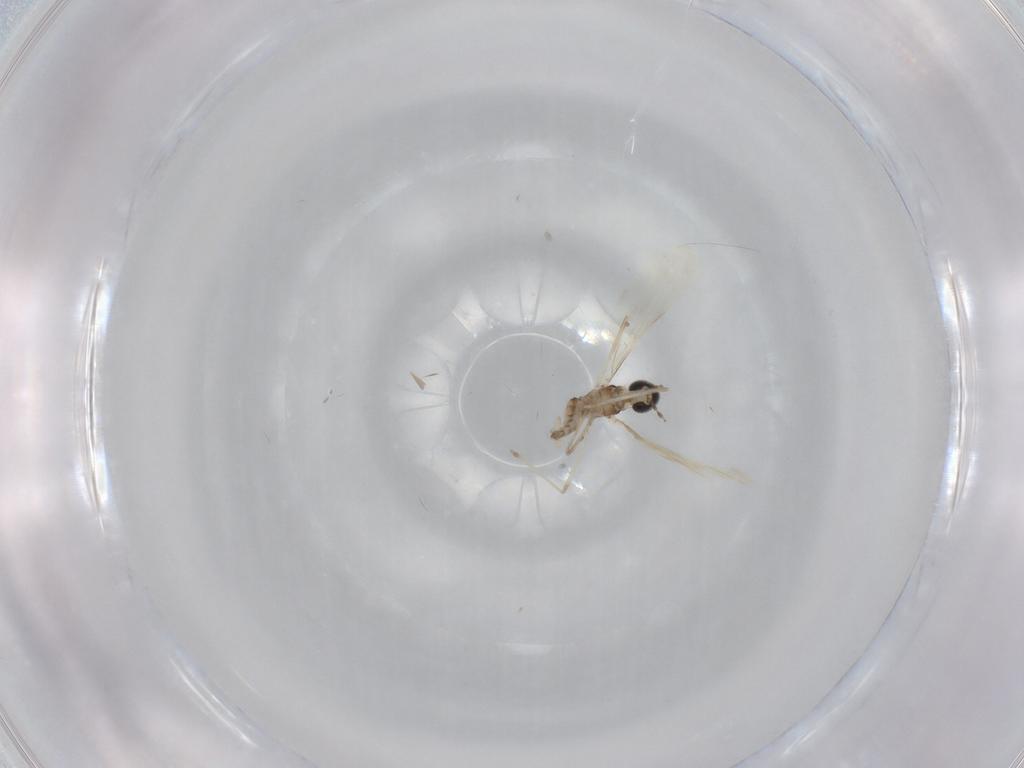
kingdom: Animalia
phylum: Arthropoda
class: Insecta
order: Diptera
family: Cecidomyiidae
